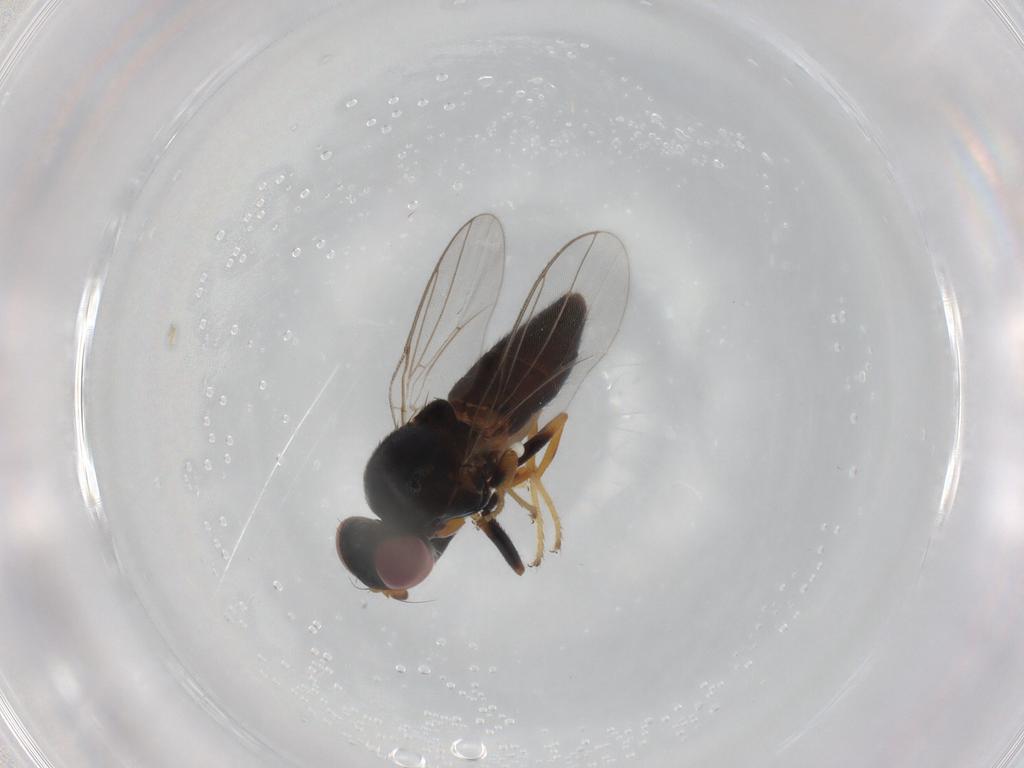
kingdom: Animalia
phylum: Arthropoda
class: Insecta
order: Diptera
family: Chloropidae
